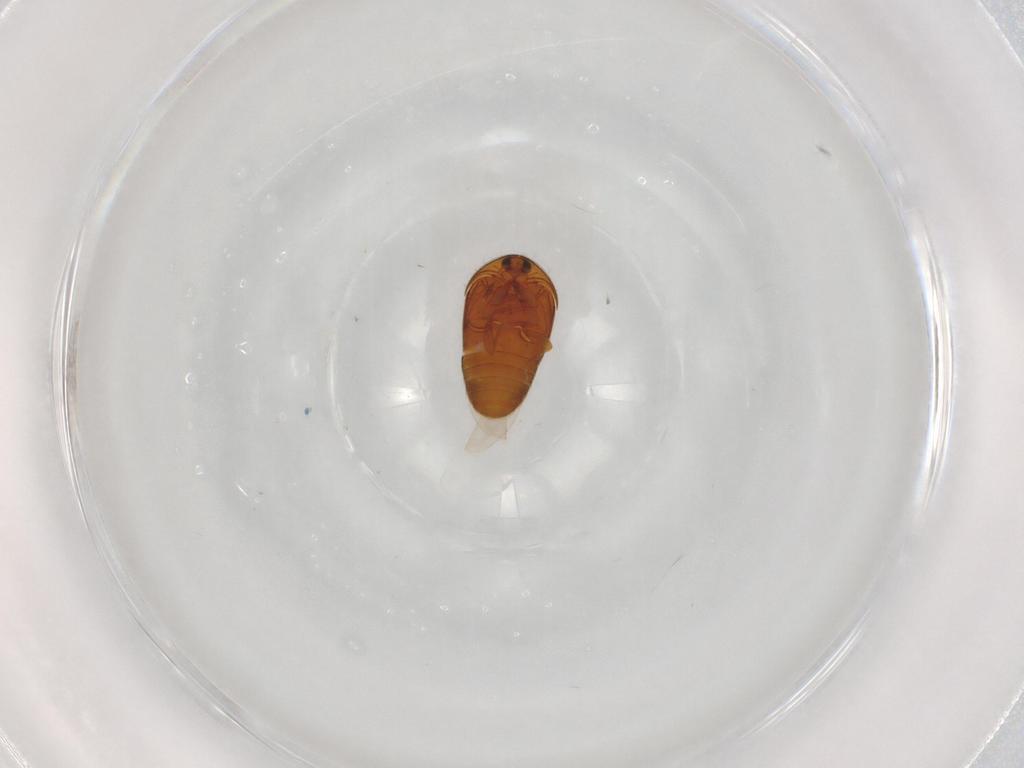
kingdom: Animalia
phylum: Arthropoda
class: Insecta
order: Coleoptera
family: Corylophidae
